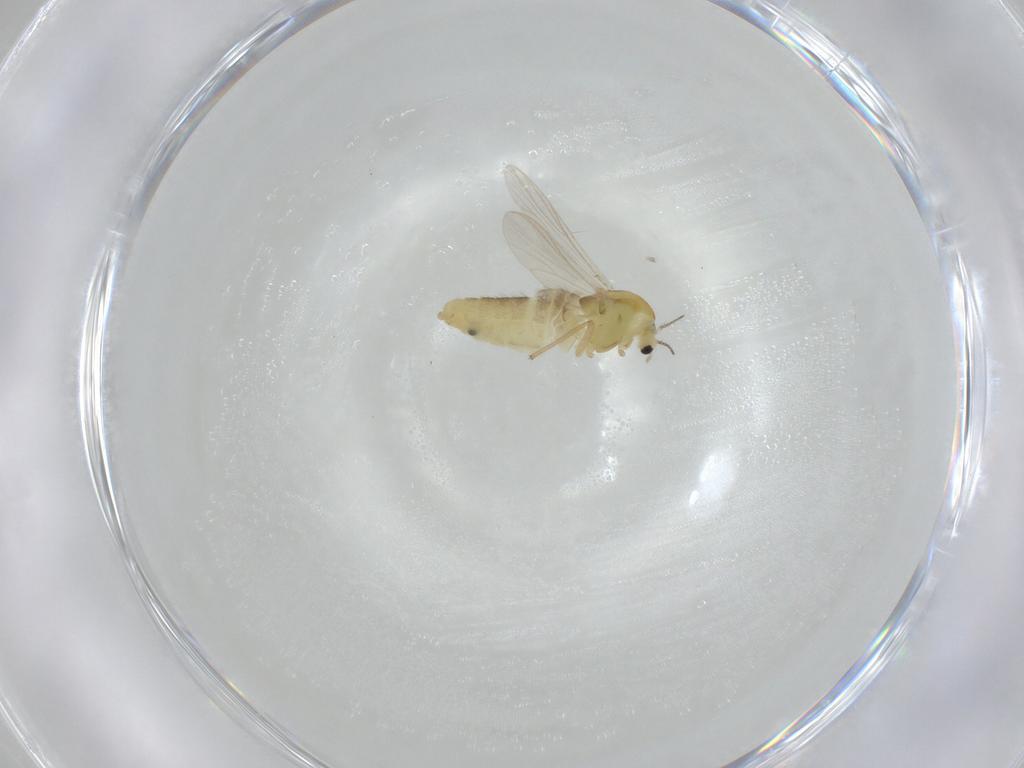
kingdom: Animalia
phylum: Arthropoda
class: Insecta
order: Diptera
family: Chironomidae
